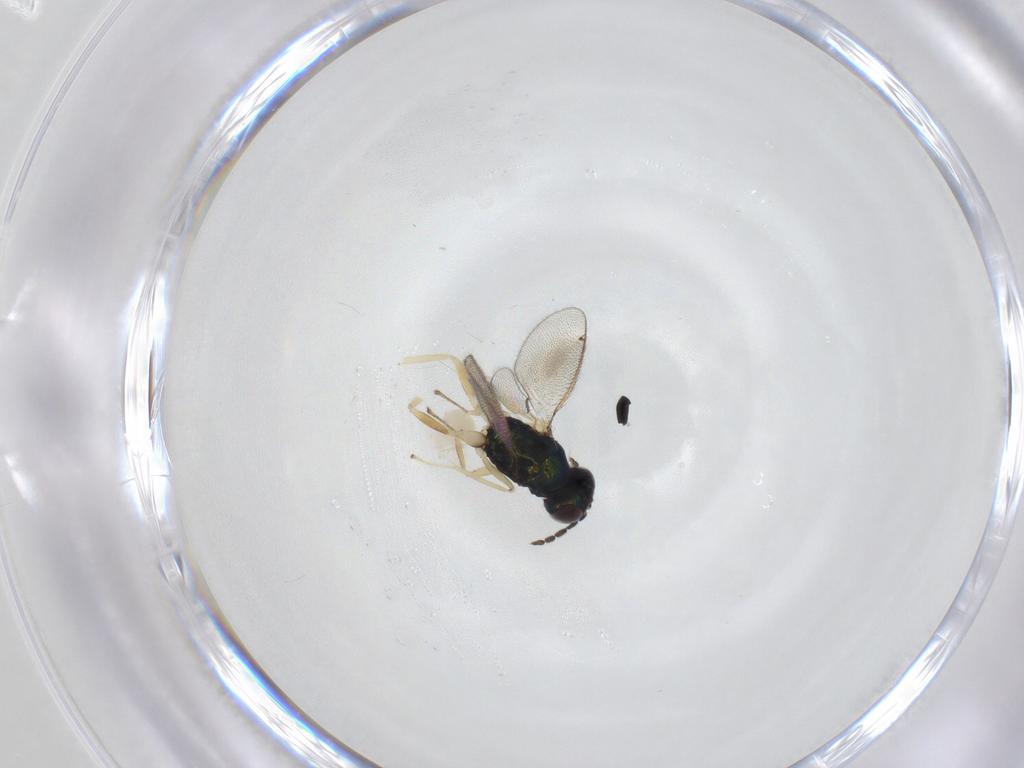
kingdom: Animalia
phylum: Arthropoda
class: Insecta
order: Hymenoptera
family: Eulophidae
